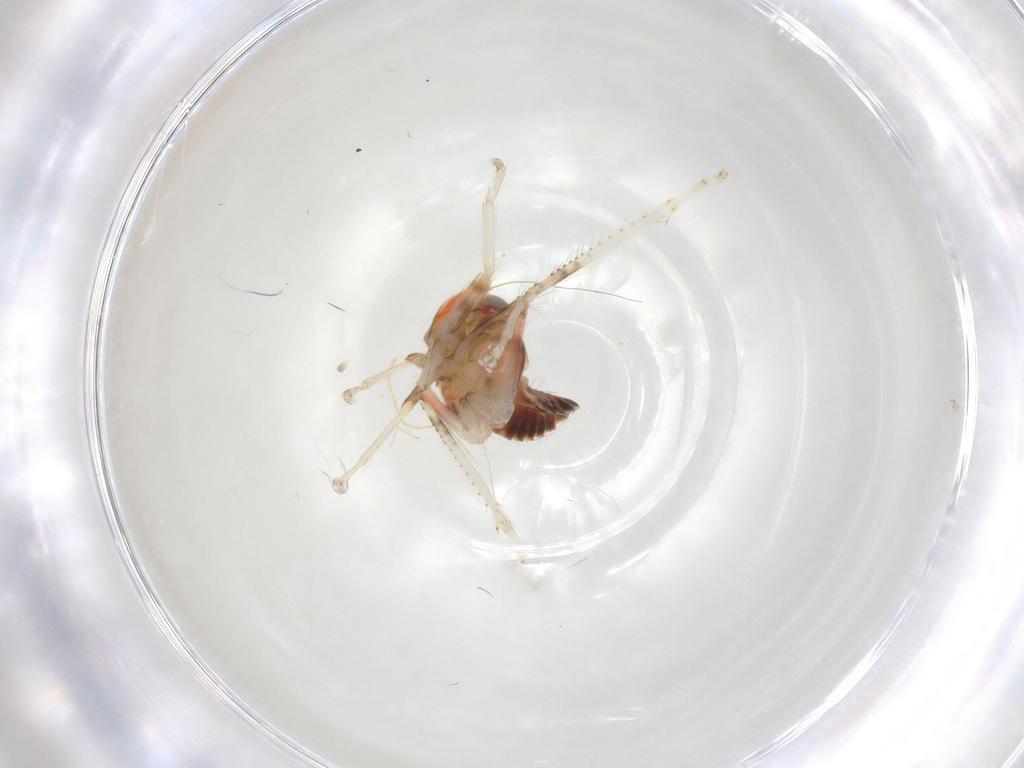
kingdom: Animalia
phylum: Arthropoda
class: Insecta
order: Hemiptera
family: Cicadellidae
